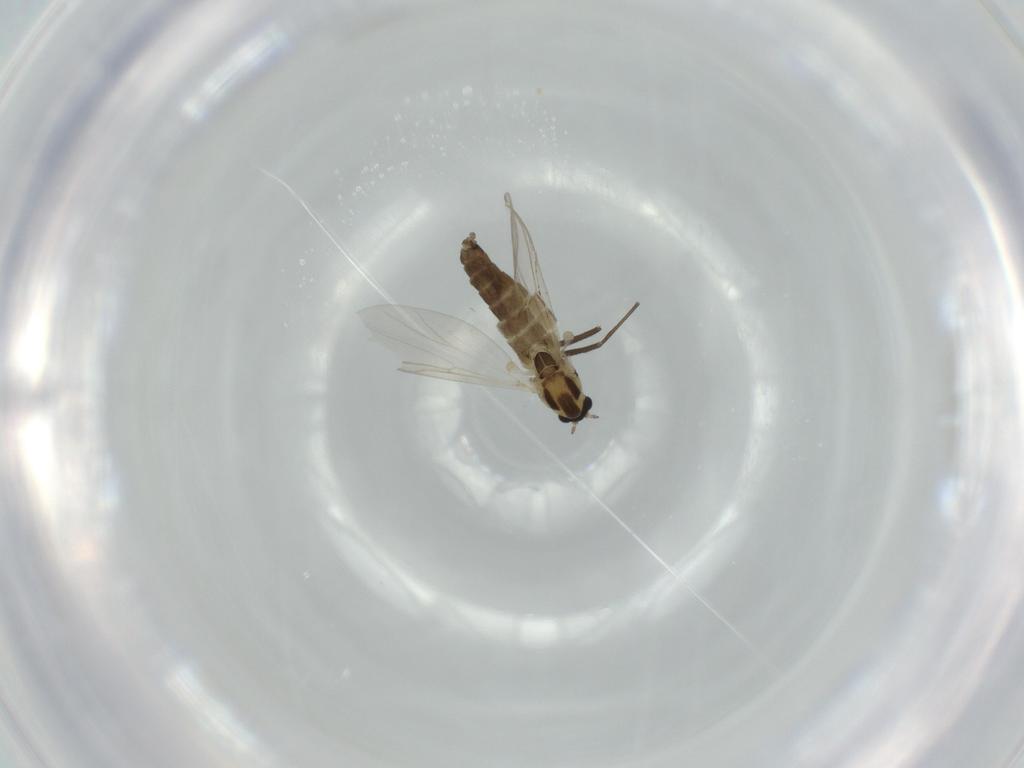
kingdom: Animalia
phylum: Arthropoda
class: Insecta
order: Diptera
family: Chironomidae
